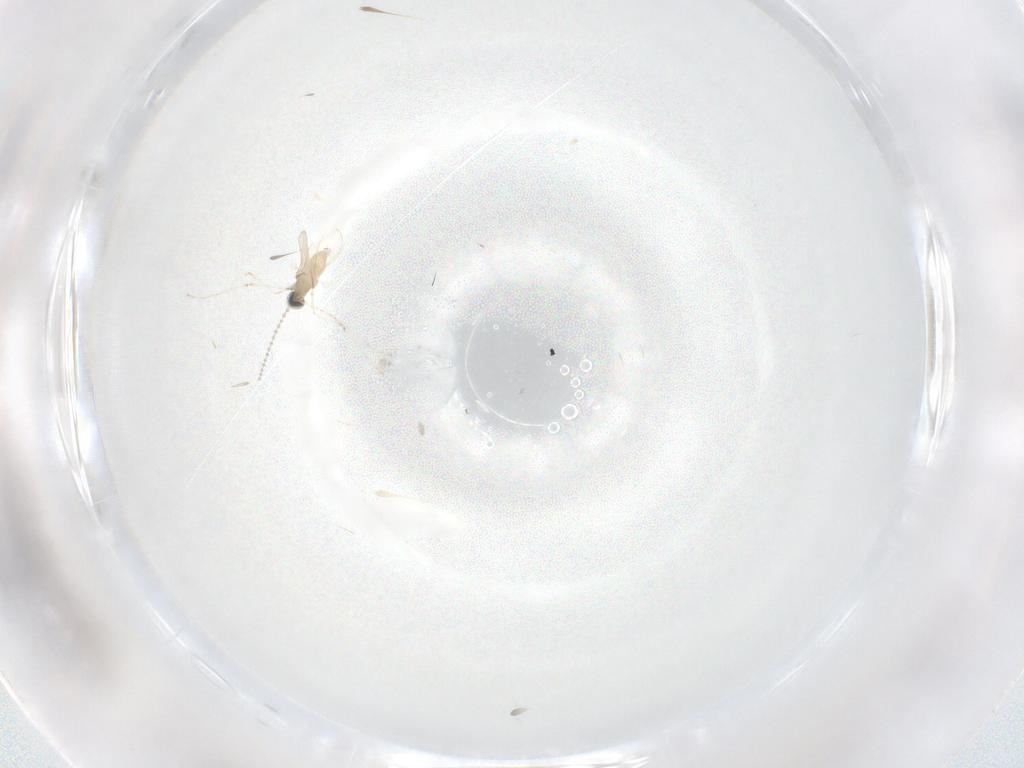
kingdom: Animalia
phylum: Arthropoda
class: Insecta
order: Diptera
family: Cecidomyiidae
